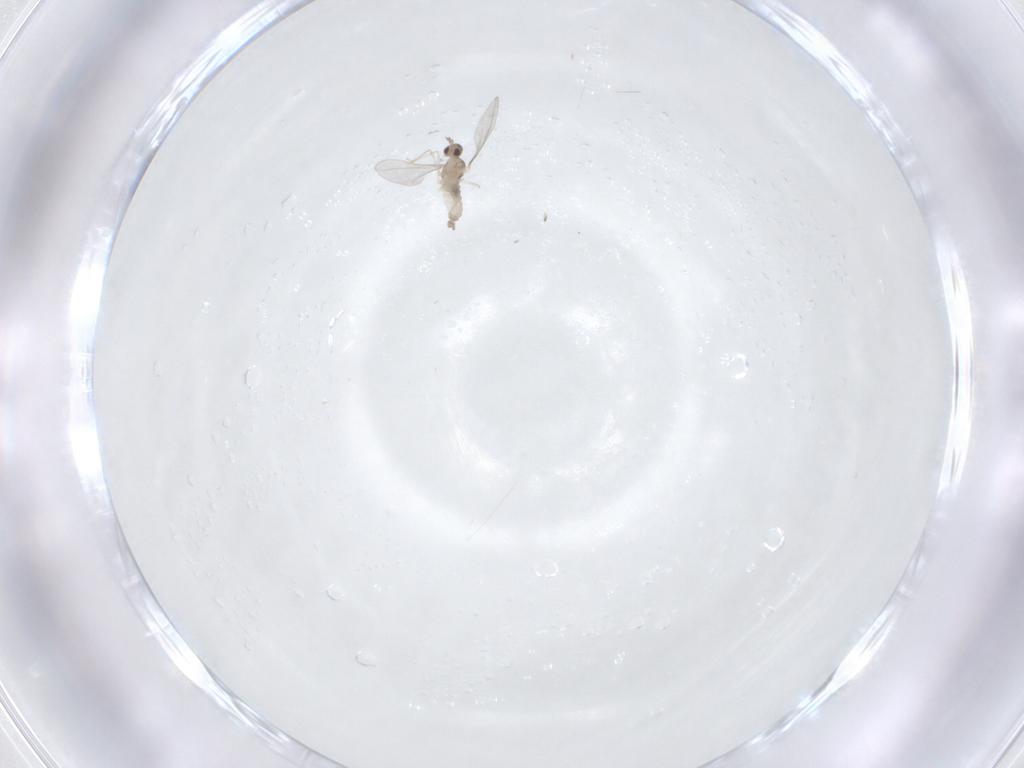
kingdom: Animalia
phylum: Arthropoda
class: Insecta
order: Diptera
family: Cecidomyiidae
